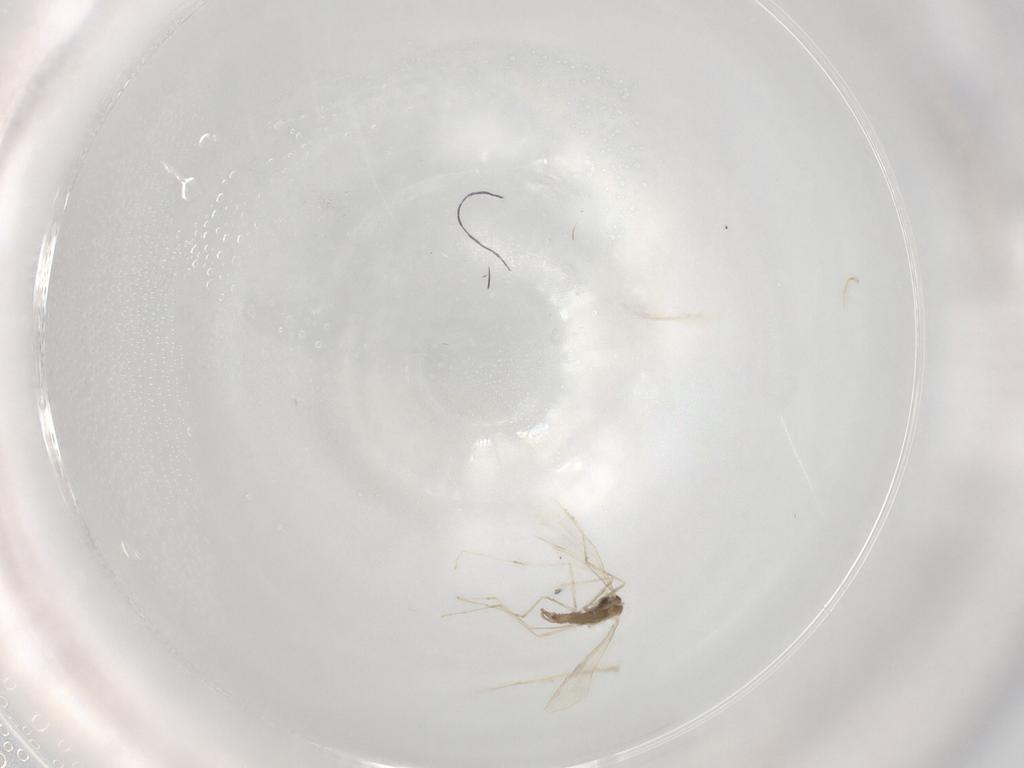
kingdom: Animalia
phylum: Arthropoda
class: Insecta
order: Diptera
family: Cecidomyiidae
